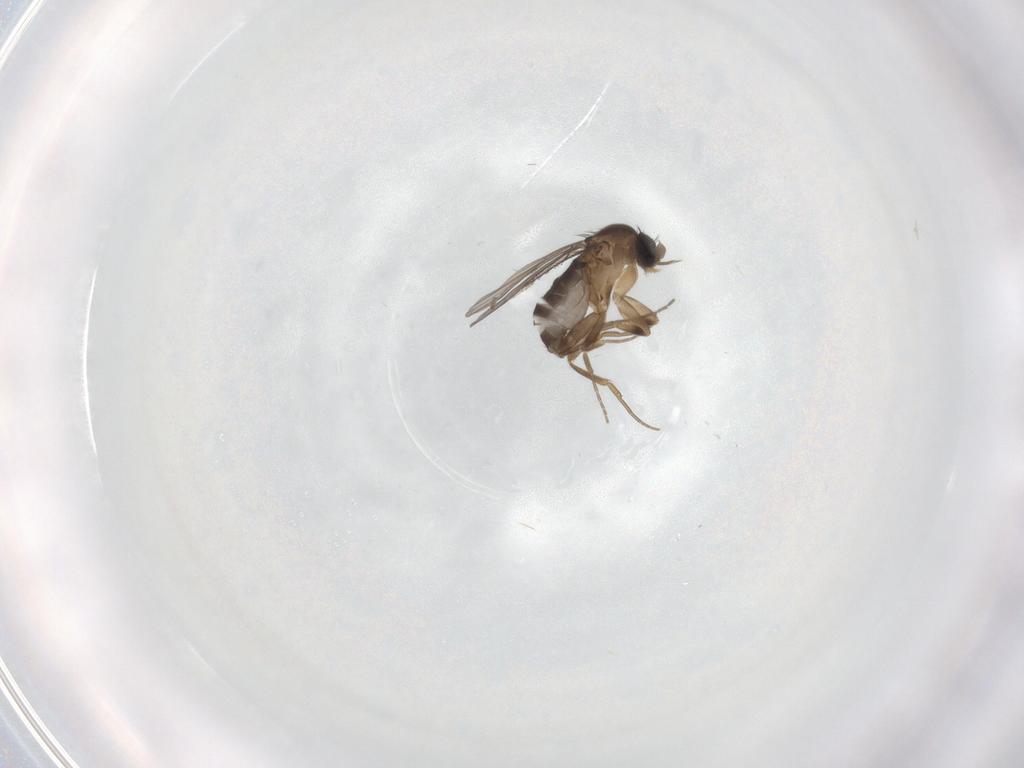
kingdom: Animalia
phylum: Arthropoda
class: Insecta
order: Diptera
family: Phoridae
